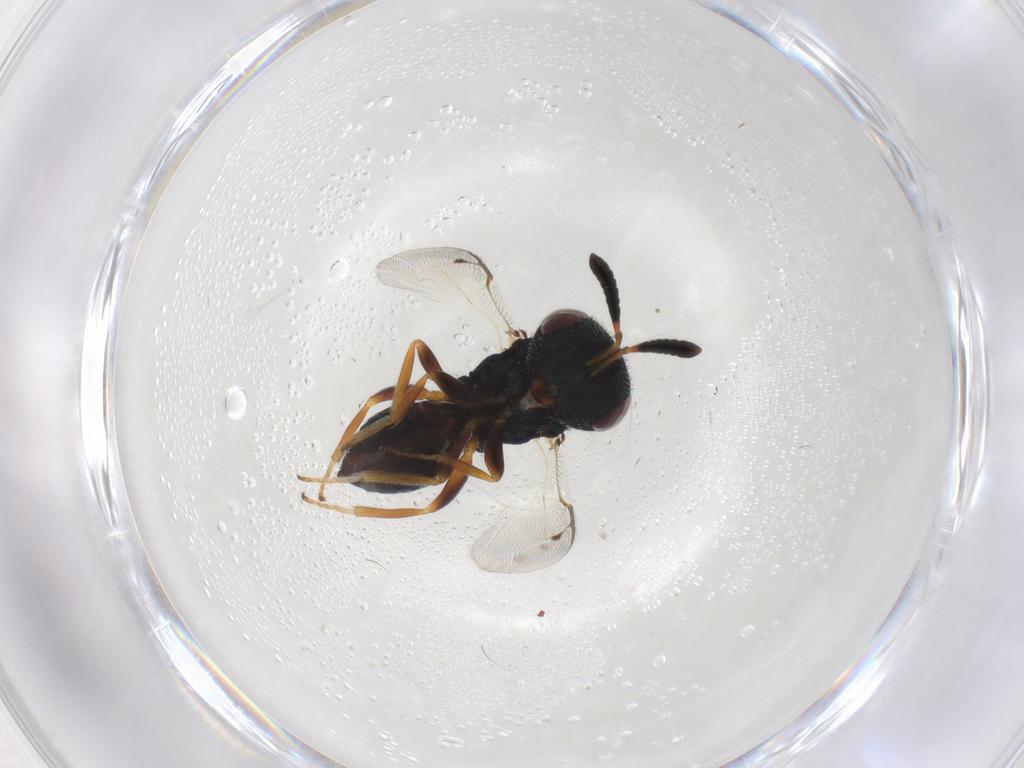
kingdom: Animalia
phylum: Arthropoda
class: Insecta
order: Hymenoptera
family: Pteromalidae
